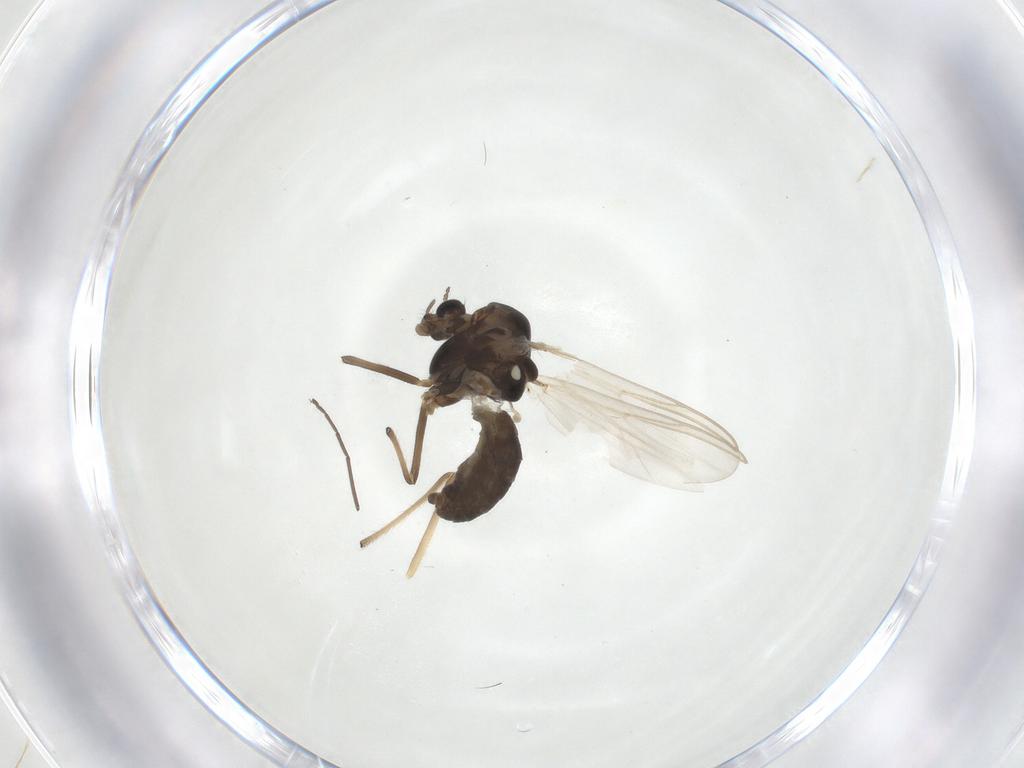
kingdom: Animalia
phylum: Arthropoda
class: Insecta
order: Diptera
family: Chironomidae
